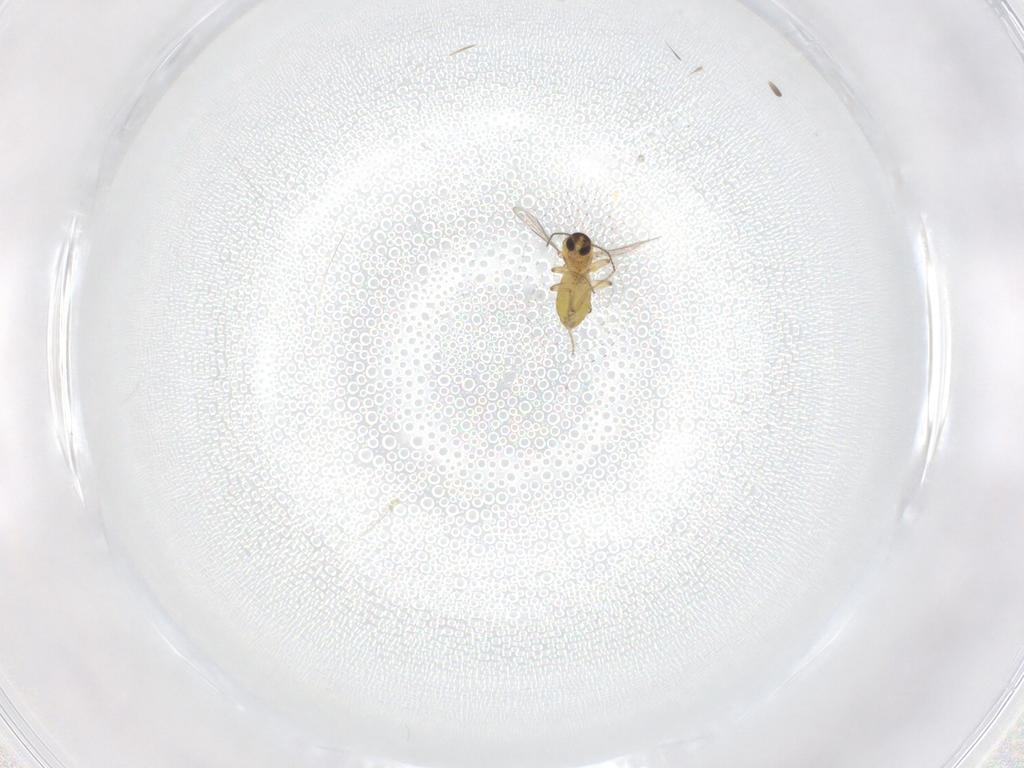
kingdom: Animalia
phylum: Arthropoda
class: Insecta
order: Diptera
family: Ceratopogonidae
